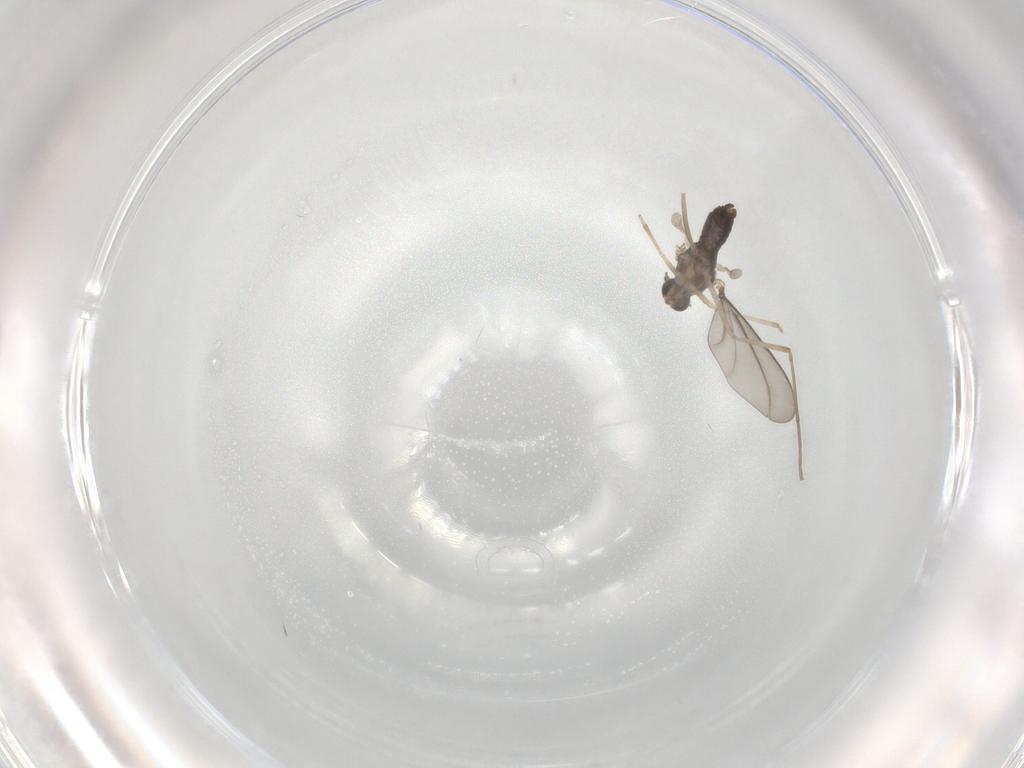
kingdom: Animalia
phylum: Arthropoda
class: Insecta
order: Diptera
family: Cecidomyiidae
